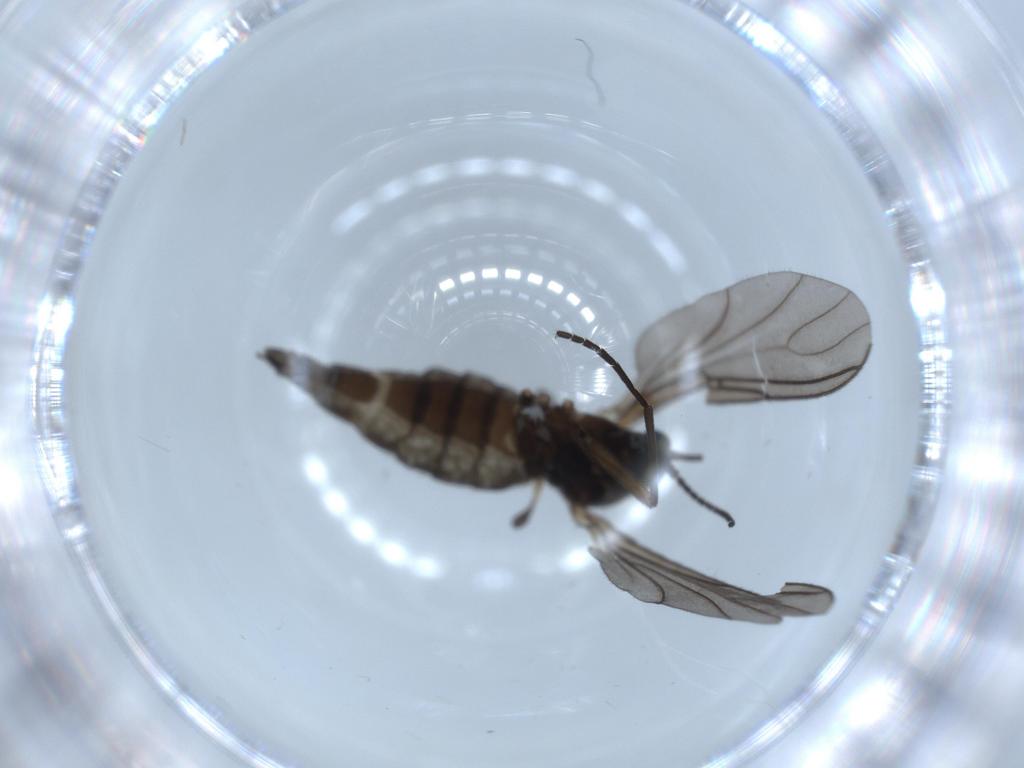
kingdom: Animalia
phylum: Arthropoda
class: Insecta
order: Diptera
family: Sciaridae
